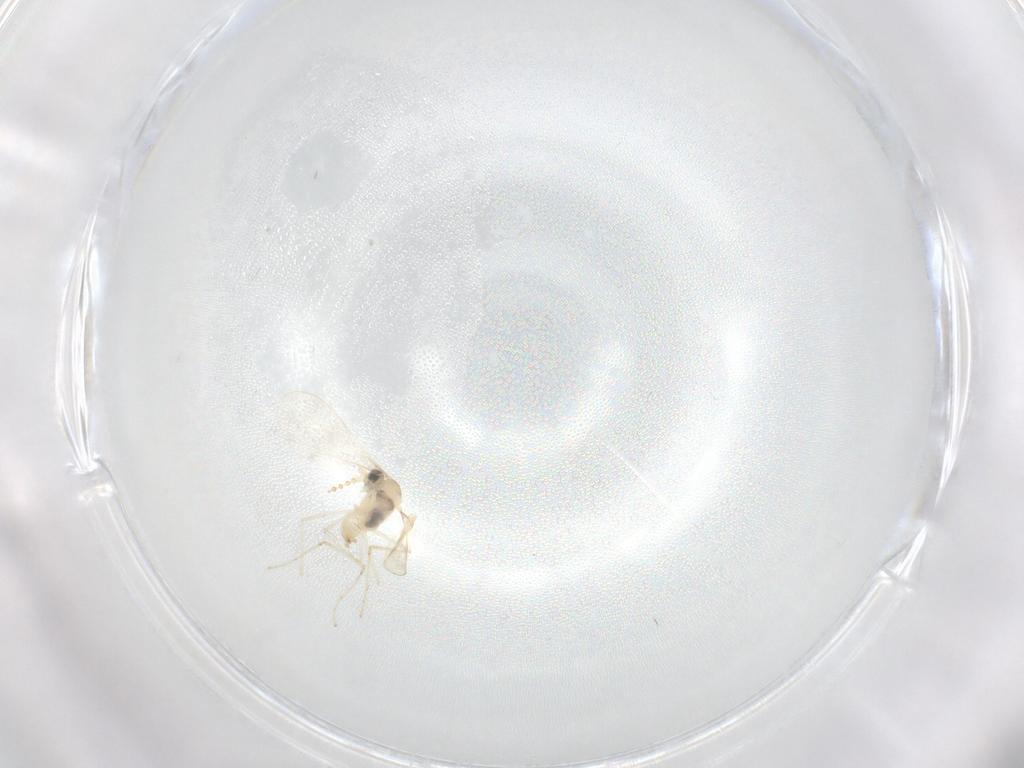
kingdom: Animalia
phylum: Arthropoda
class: Insecta
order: Diptera
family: Cecidomyiidae
